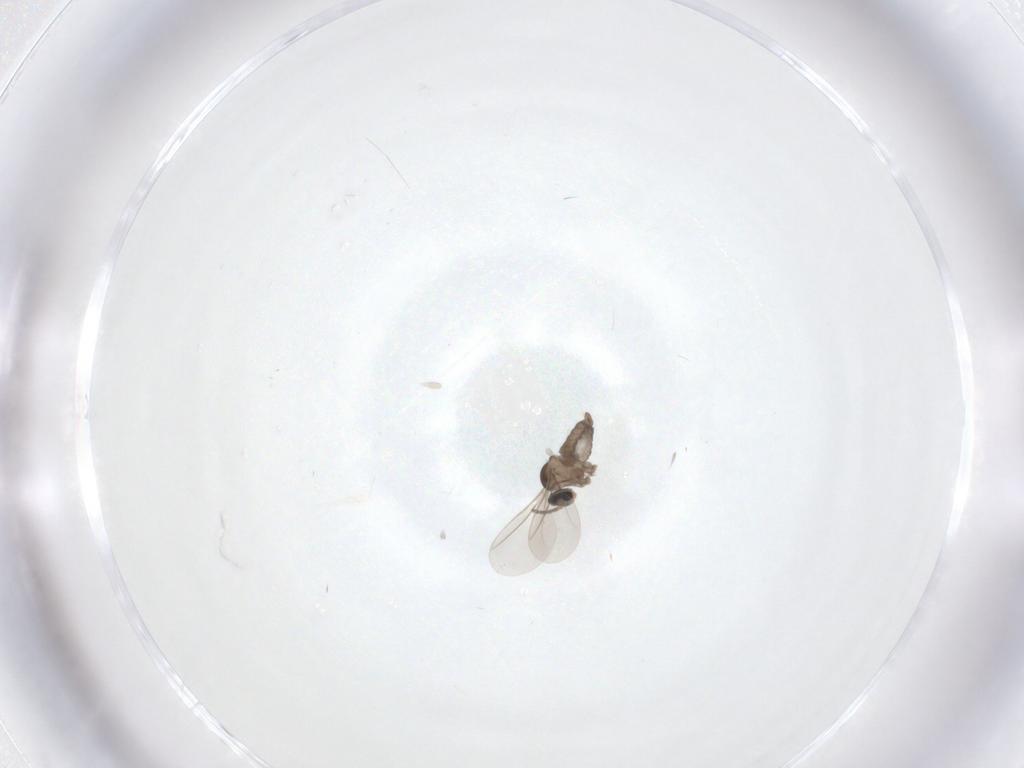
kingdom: Animalia
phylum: Arthropoda
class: Insecta
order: Diptera
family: Cecidomyiidae
